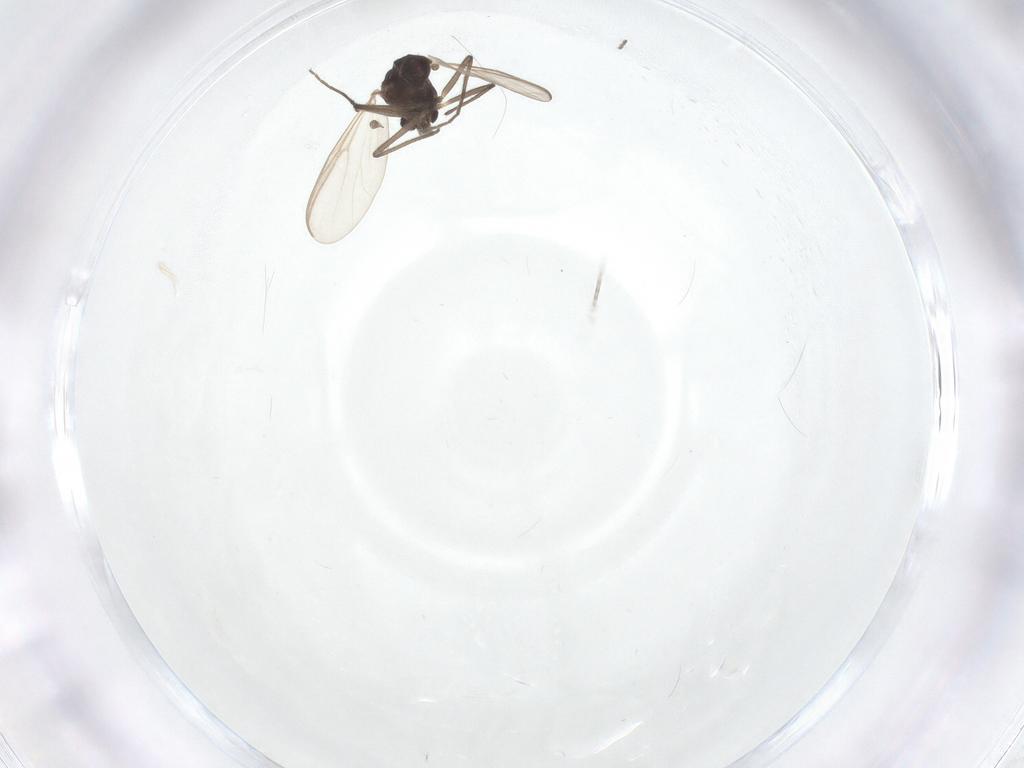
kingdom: Animalia
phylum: Arthropoda
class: Insecta
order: Diptera
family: Chironomidae
